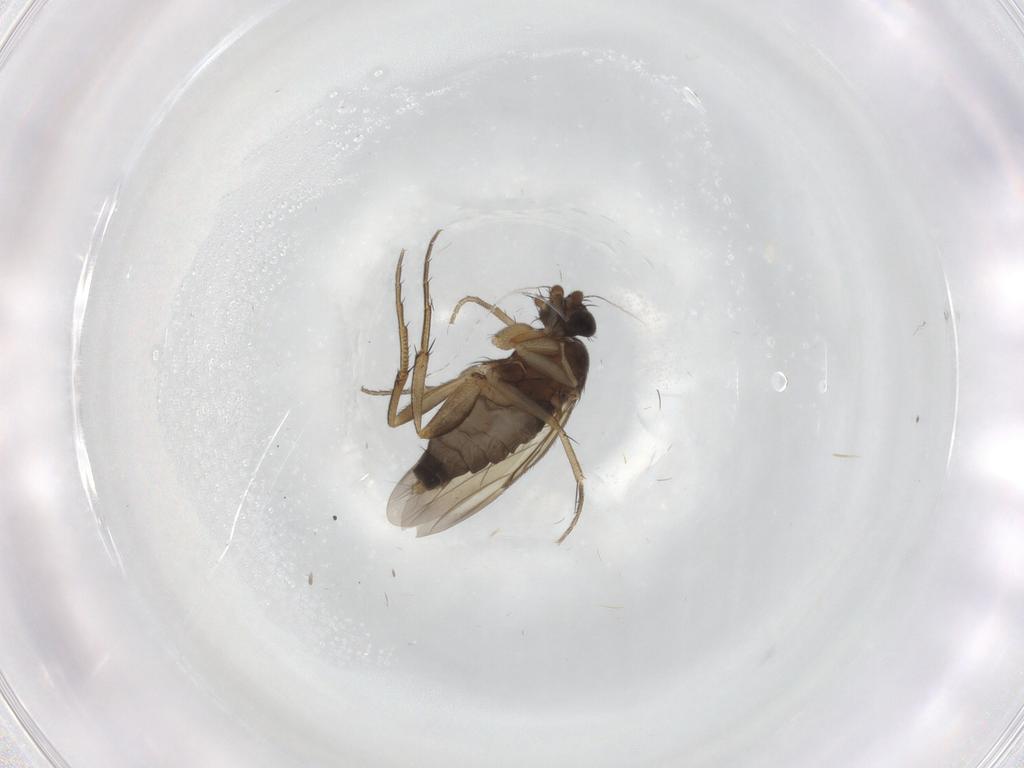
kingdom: Animalia
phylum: Arthropoda
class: Insecta
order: Diptera
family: Phoridae
